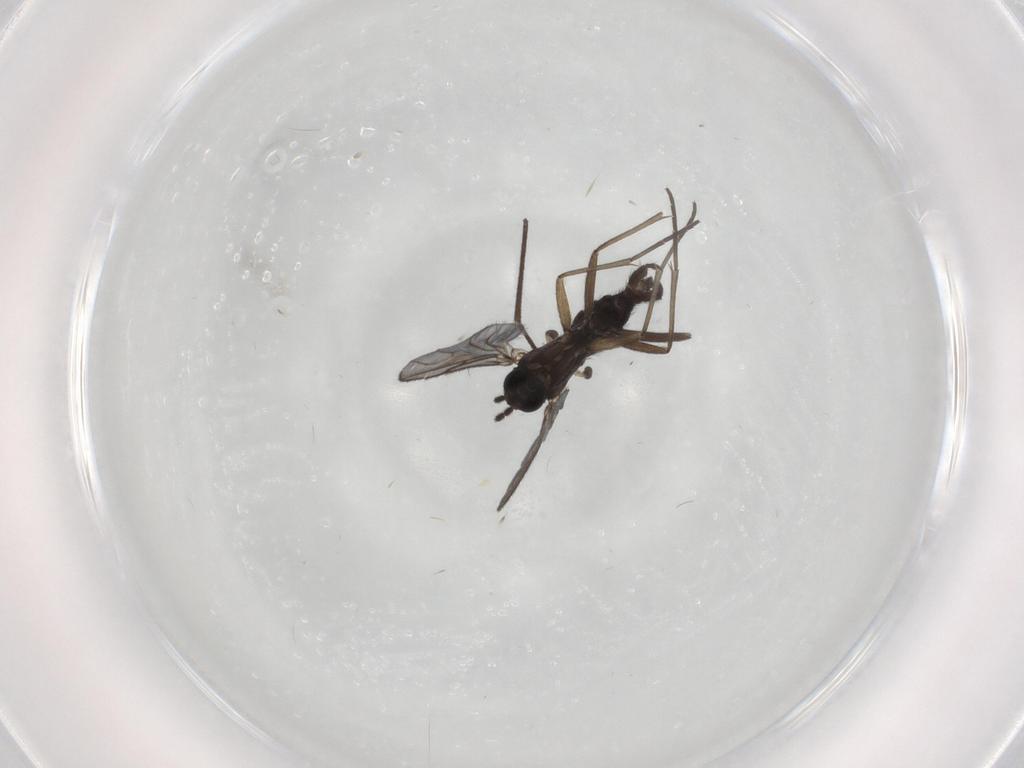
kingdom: Animalia
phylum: Arthropoda
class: Insecta
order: Diptera
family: Sciaridae
